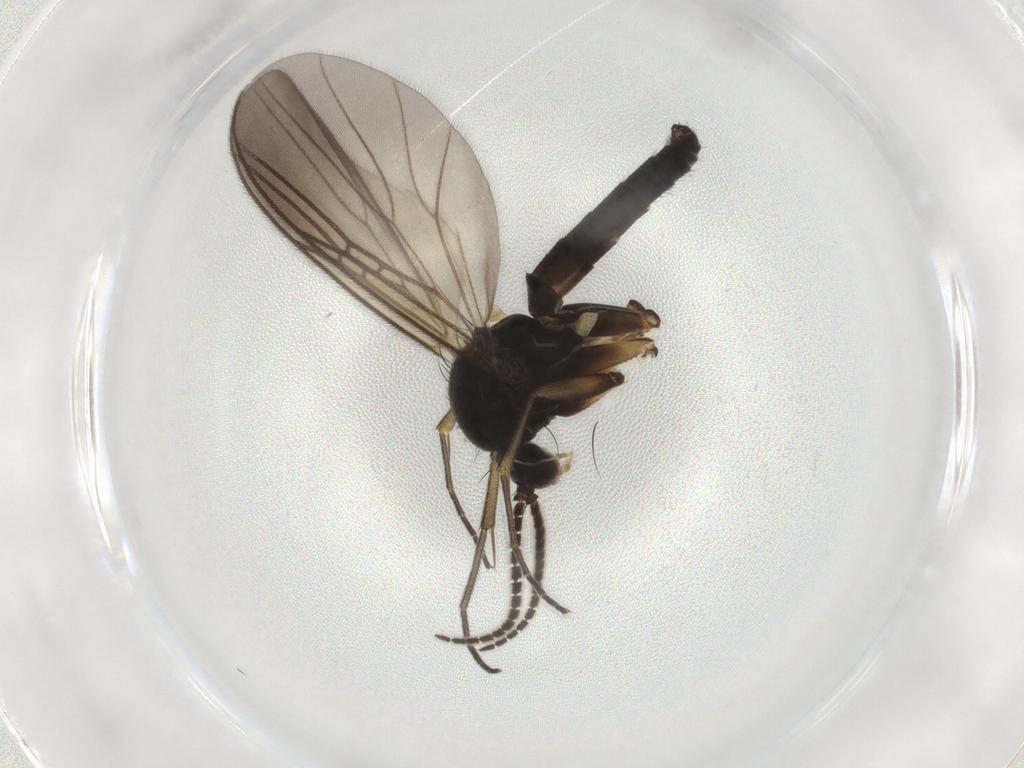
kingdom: Animalia
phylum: Arthropoda
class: Insecta
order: Diptera
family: Mycetophilidae
